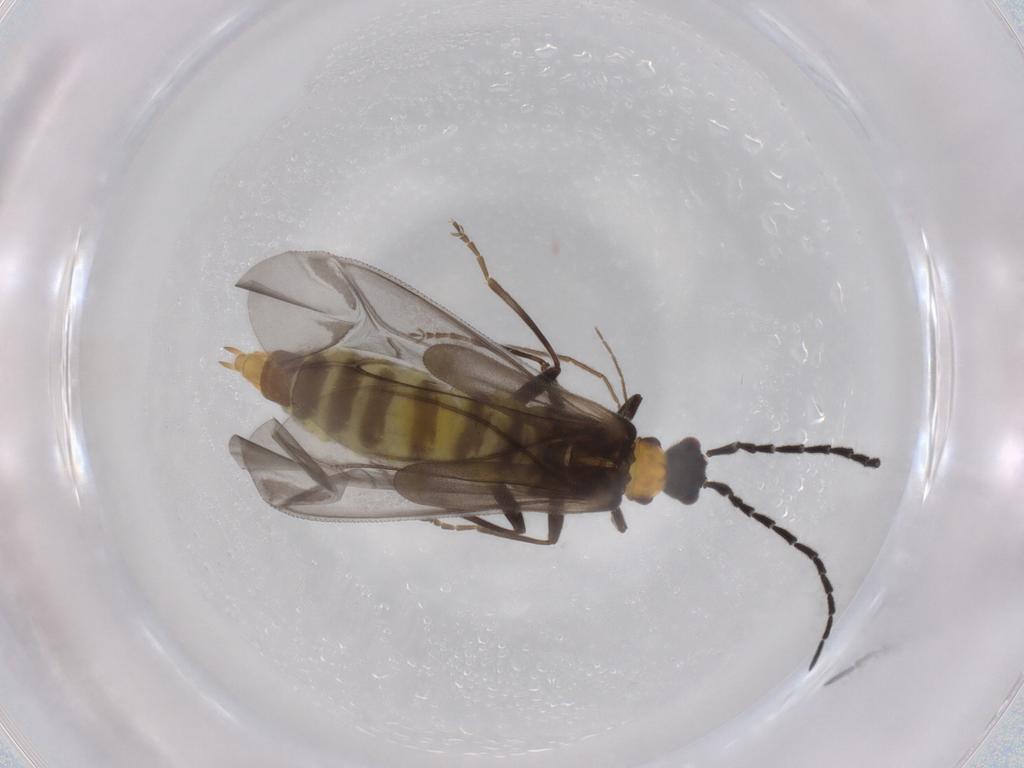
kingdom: Animalia
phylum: Arthropoda
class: Insecta
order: Coleoptera
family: Cantharidae
